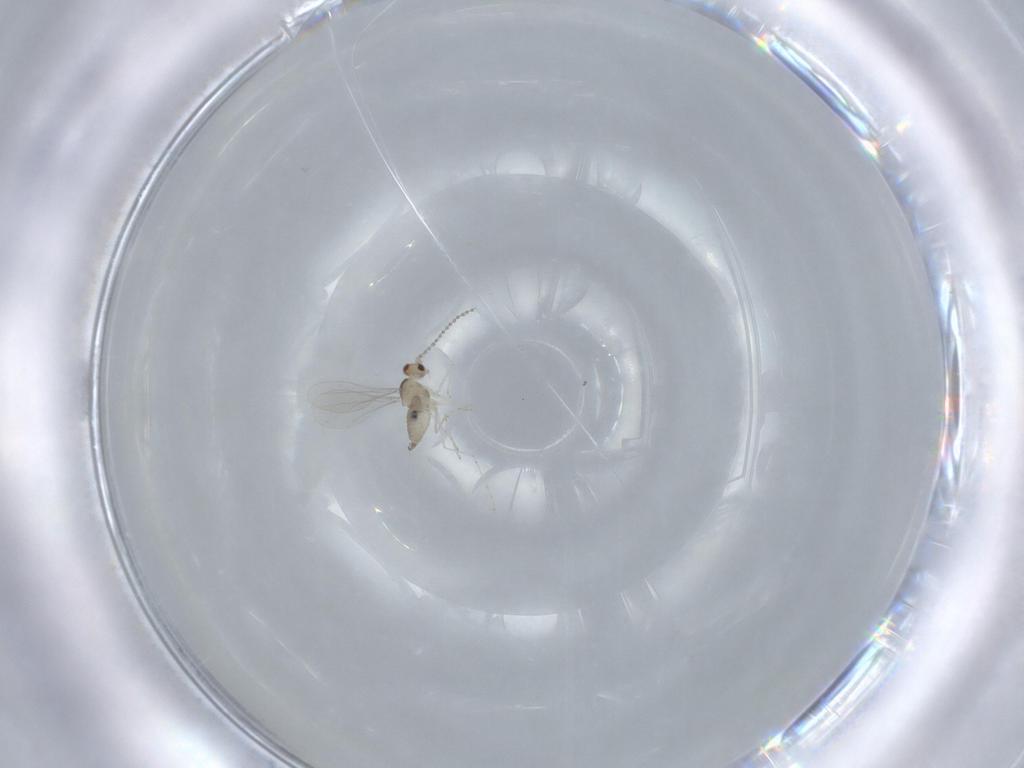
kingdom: Animalia
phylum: Arthropoda
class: Insecta
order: Diptera
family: Cecidomyiidae
